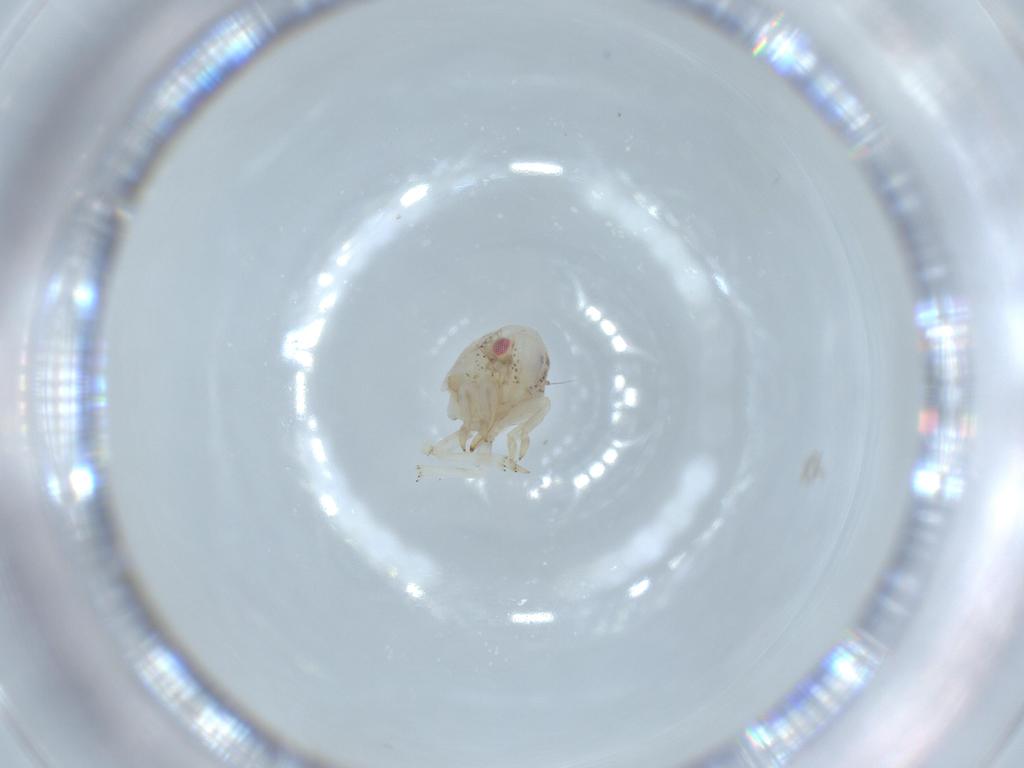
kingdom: Animalia
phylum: Arthropoda
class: Insecta
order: Hemiptera
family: Acanaloniidae
